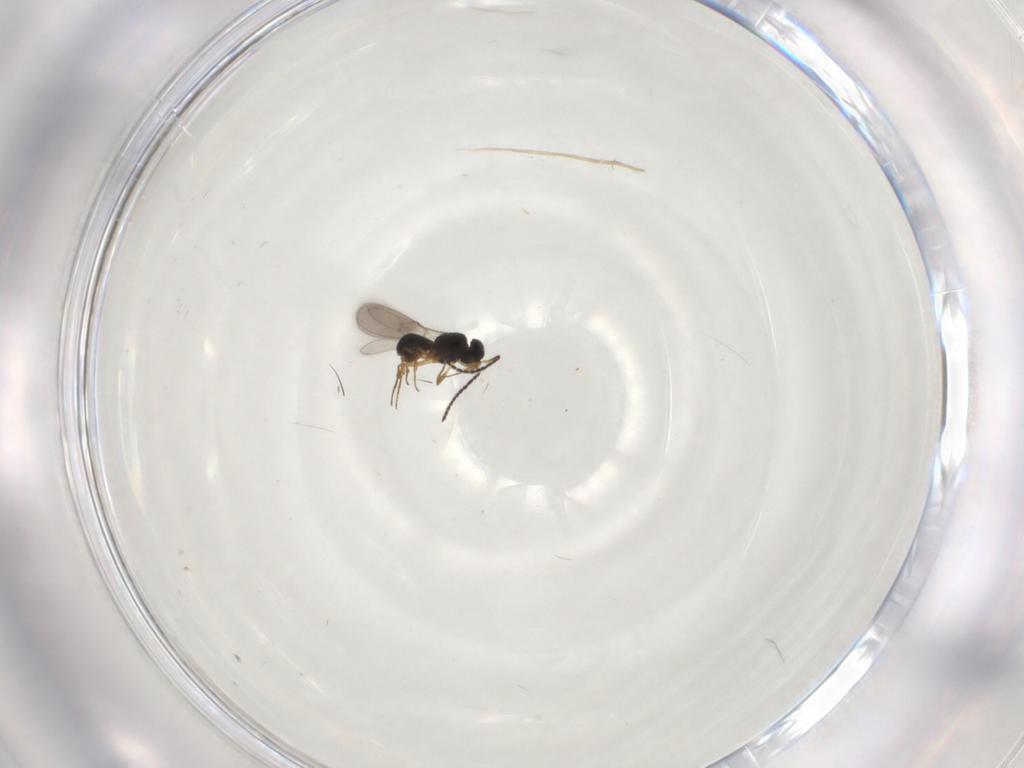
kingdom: Animalia
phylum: Arthropoda
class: Insecta
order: Hymenoptera
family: Scelionidae
